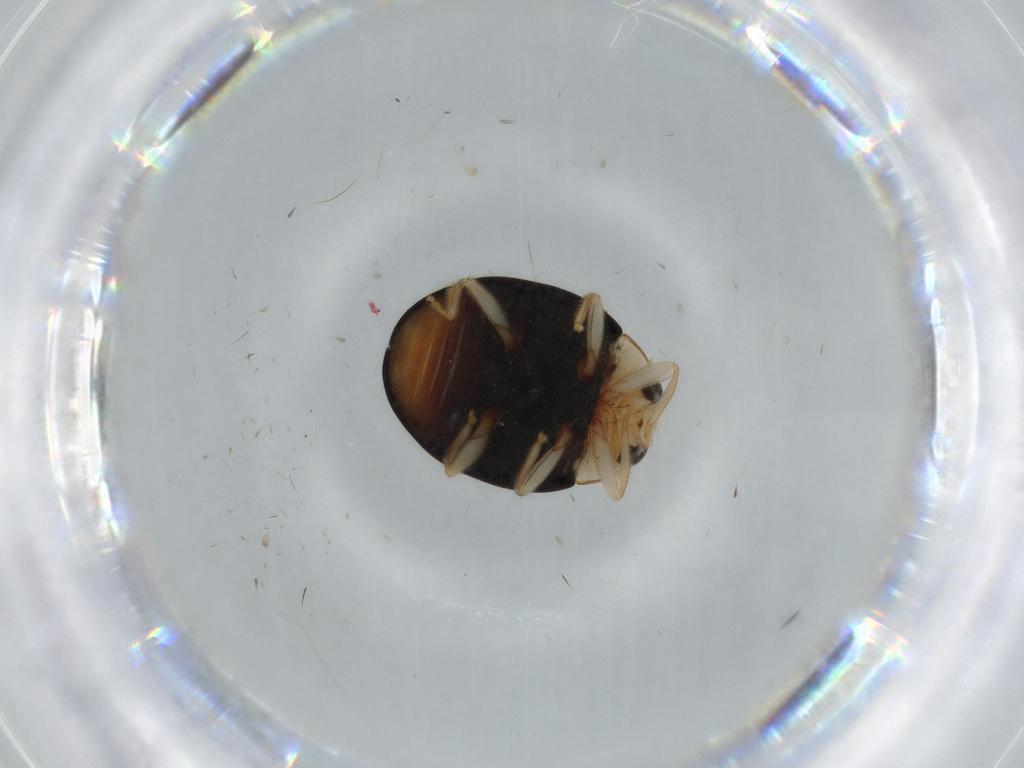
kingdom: Animalia
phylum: Arthropoda
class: Insecta
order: Coleoptera
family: Coccinellidae
